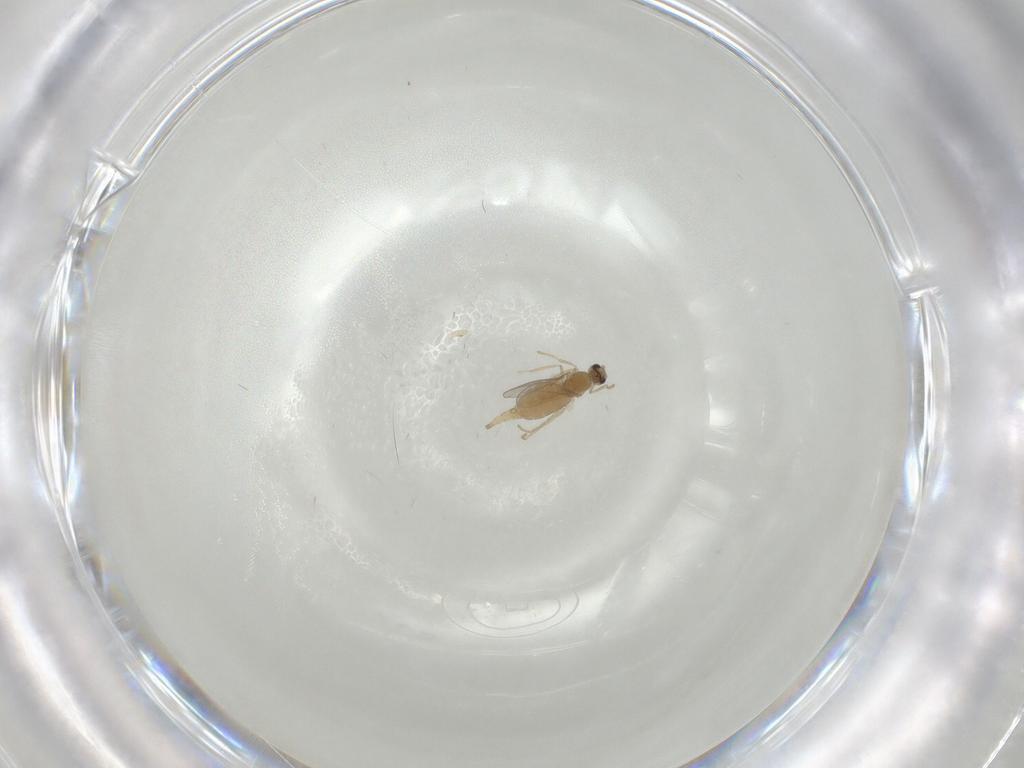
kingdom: Animalia
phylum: Arthropoda
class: Insecta
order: Diptera
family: Cecidomyiidae
